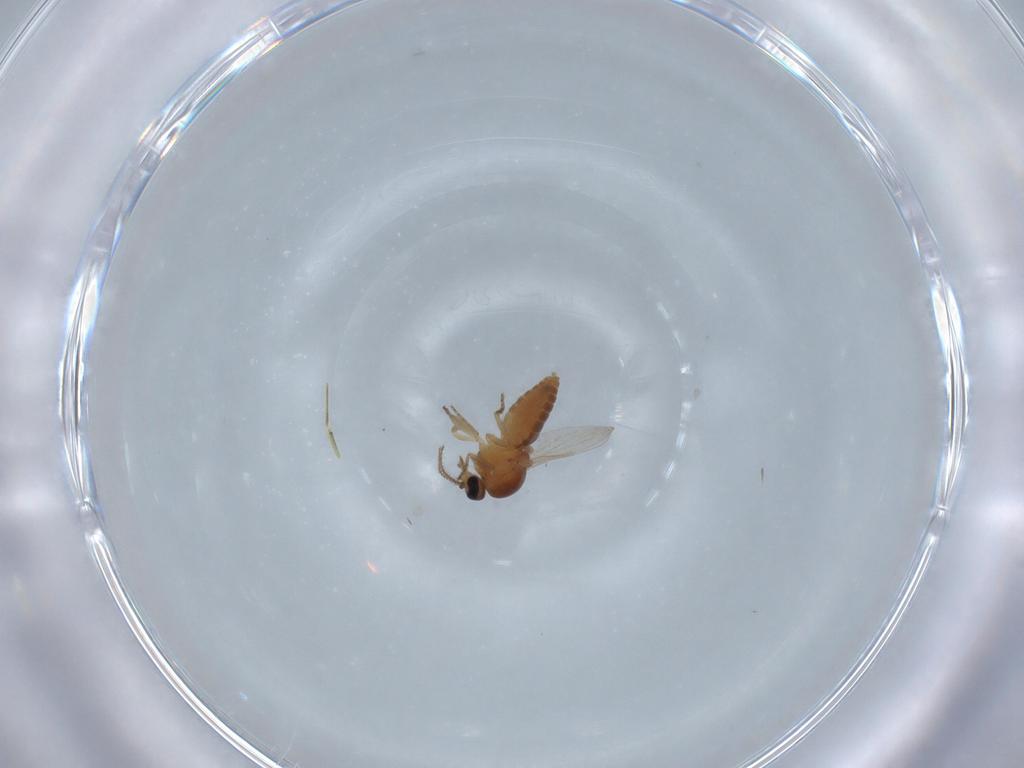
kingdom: Animalia
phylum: Arthropoda
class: Insecta
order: Diptera
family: Ceratopogonidae
